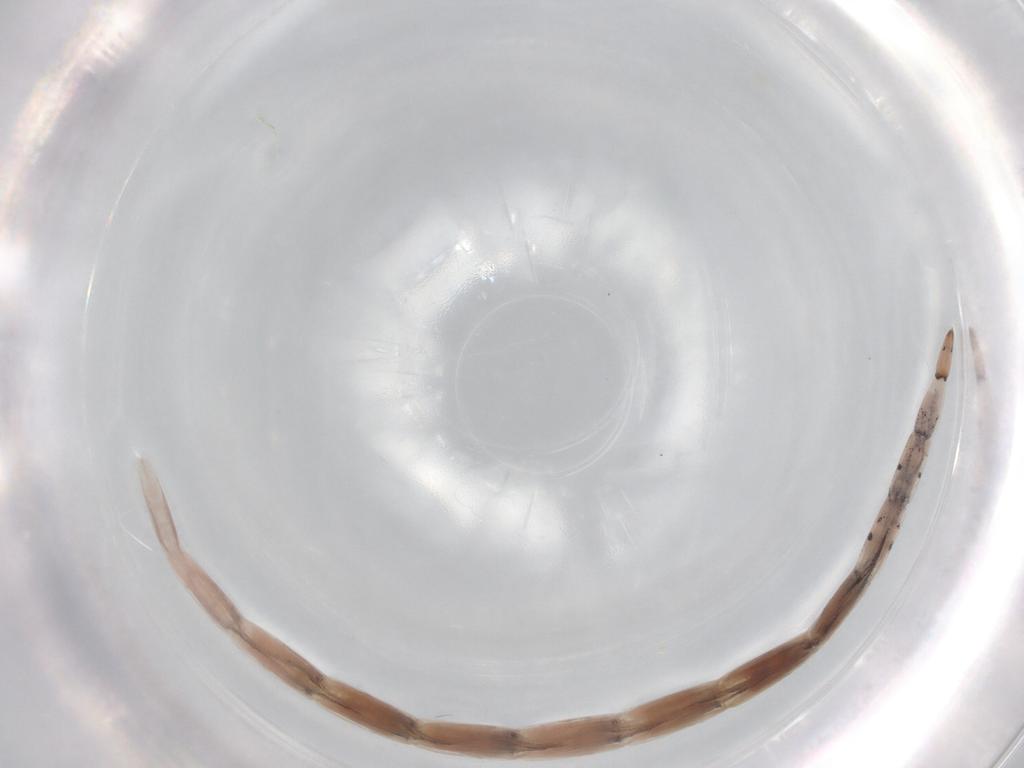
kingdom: Animalia
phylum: Arthropoda
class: Insecta
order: Diptera
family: Ceratopogonidae
